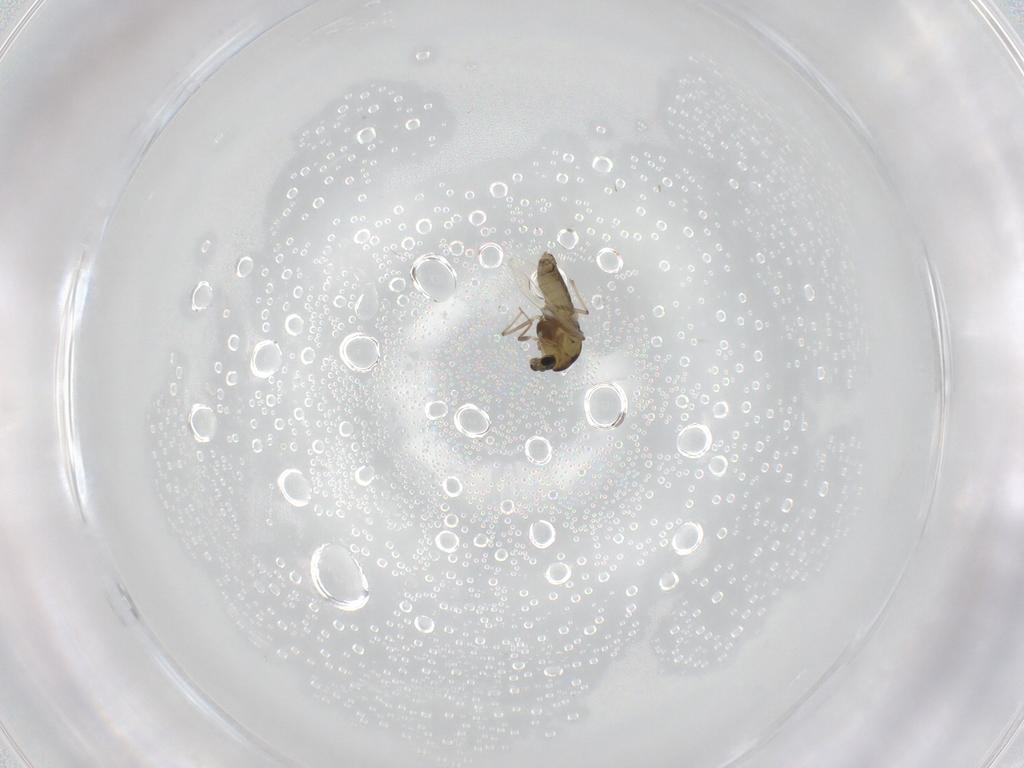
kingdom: Animalia
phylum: Arthropoda
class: Insecta
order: Diptera
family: Chironomidae
